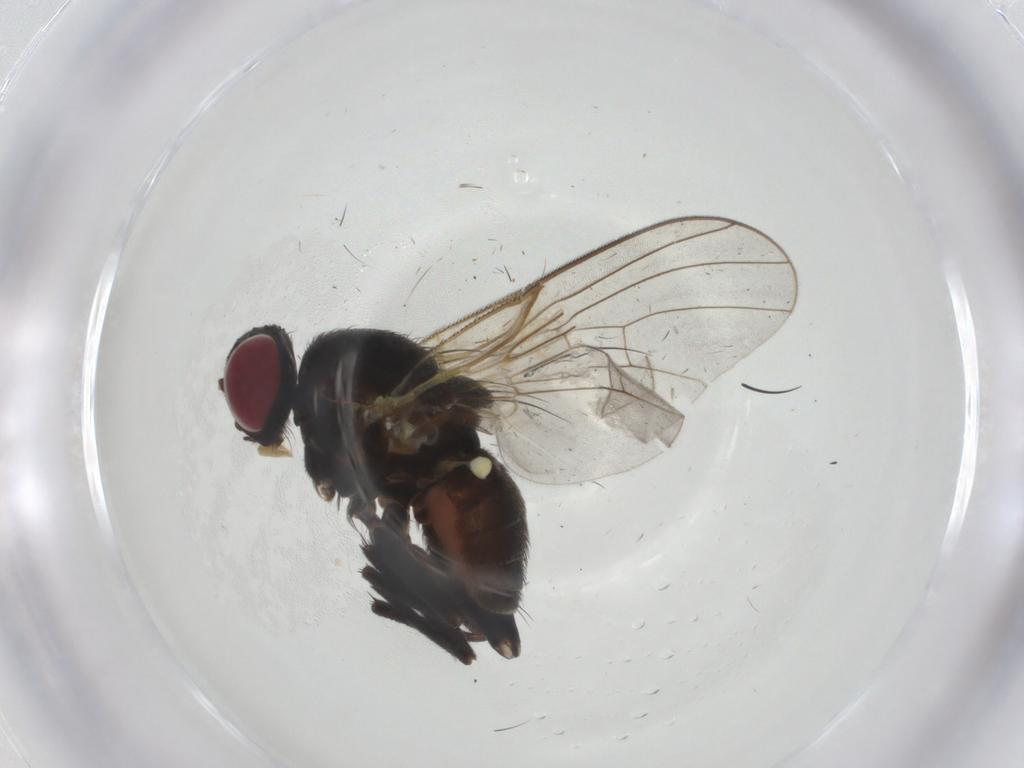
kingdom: Animalia
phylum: Arthropoda
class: Insecta
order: Diptera
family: Agromyzidae
